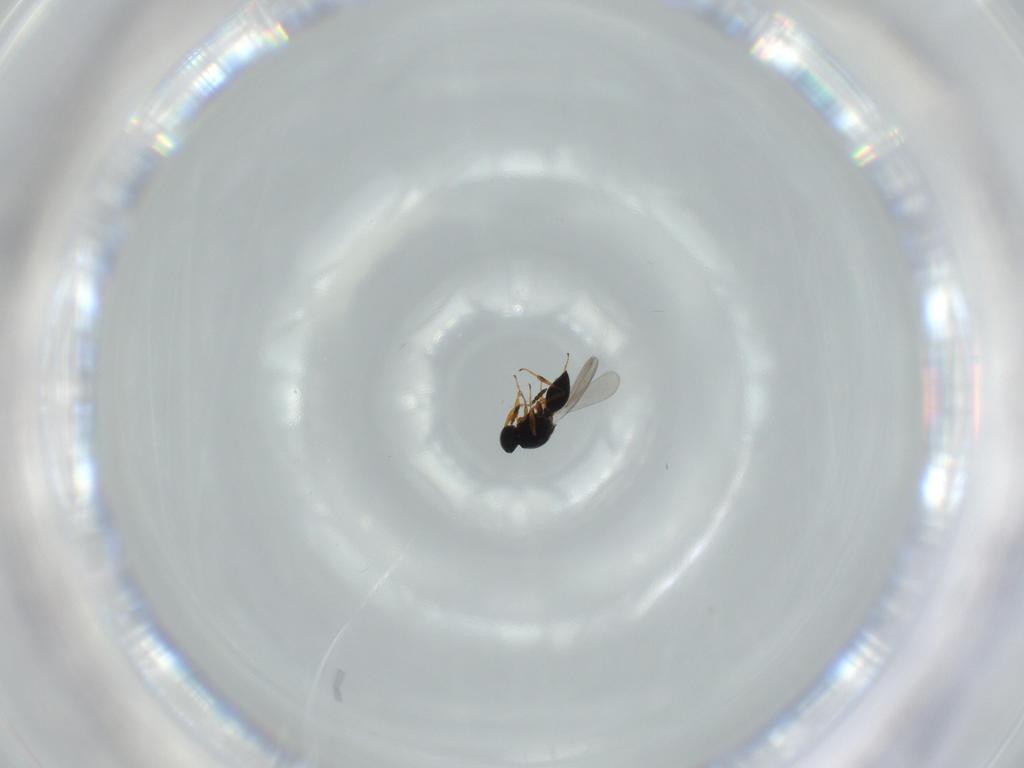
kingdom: Animalia
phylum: Arthropoda
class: Insecta
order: Hymenoptera
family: Platygastridae
